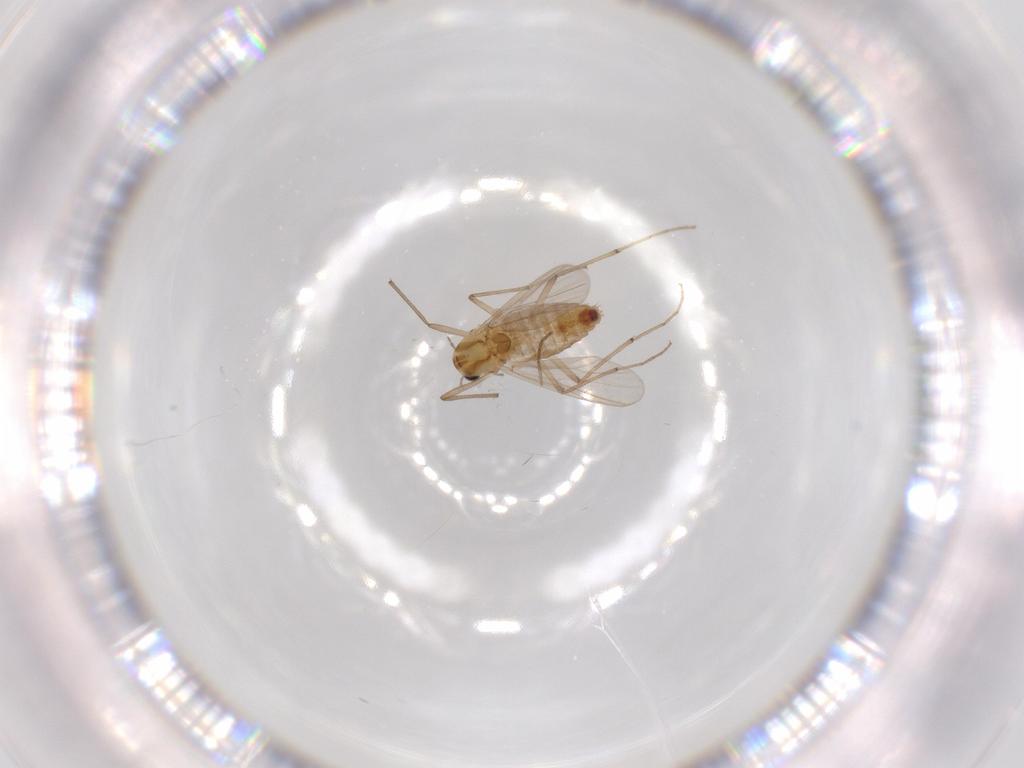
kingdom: Animalia
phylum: Arthropoda
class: Insecta
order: Diptera
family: Chironomidae
